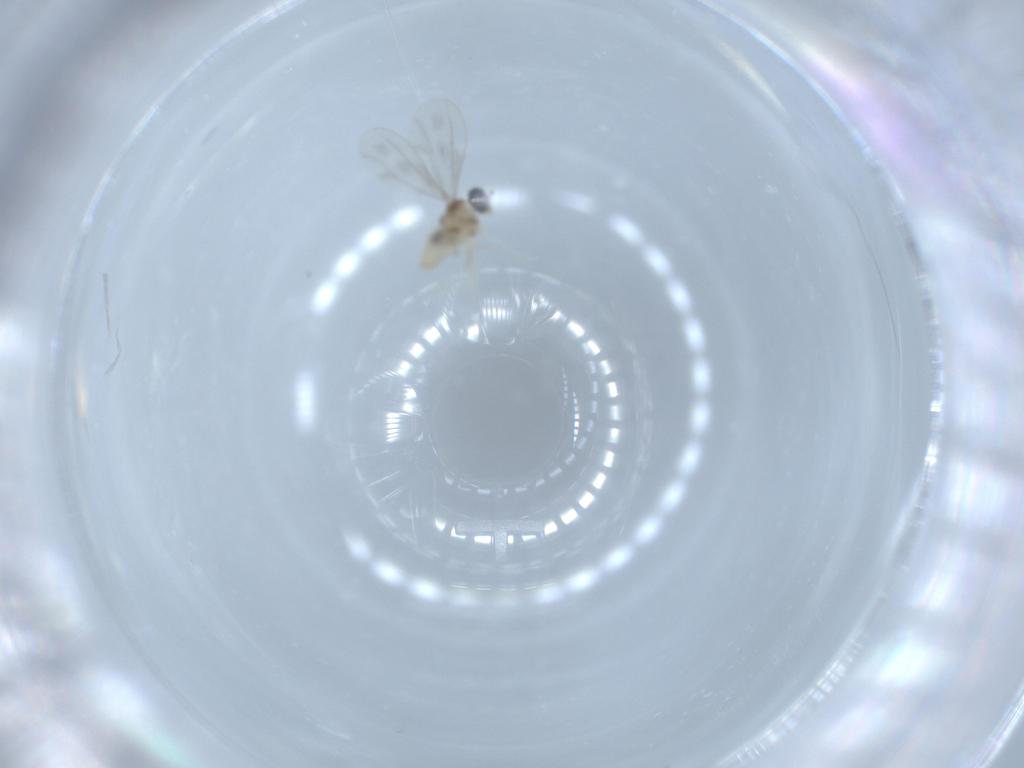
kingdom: Animalia
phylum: Arthropoda
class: Insecta
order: Diptera
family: Cecidomyiidae
